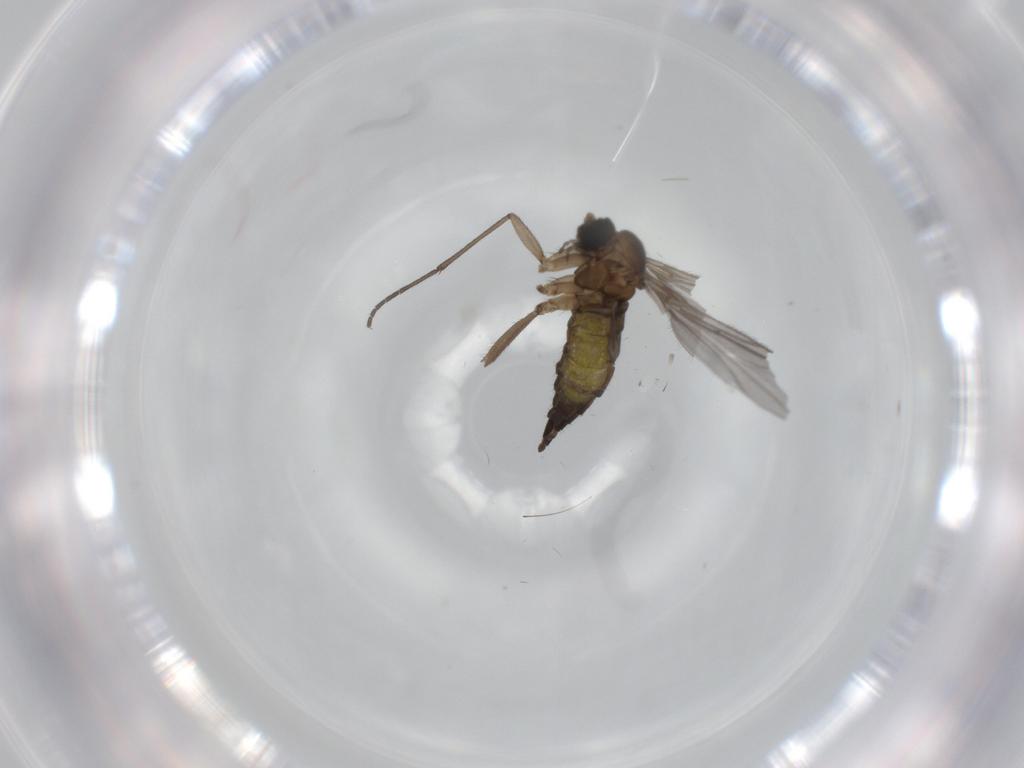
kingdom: Animalia
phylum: Arthropoda
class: Insecta
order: Diptera
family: Sciaridae
